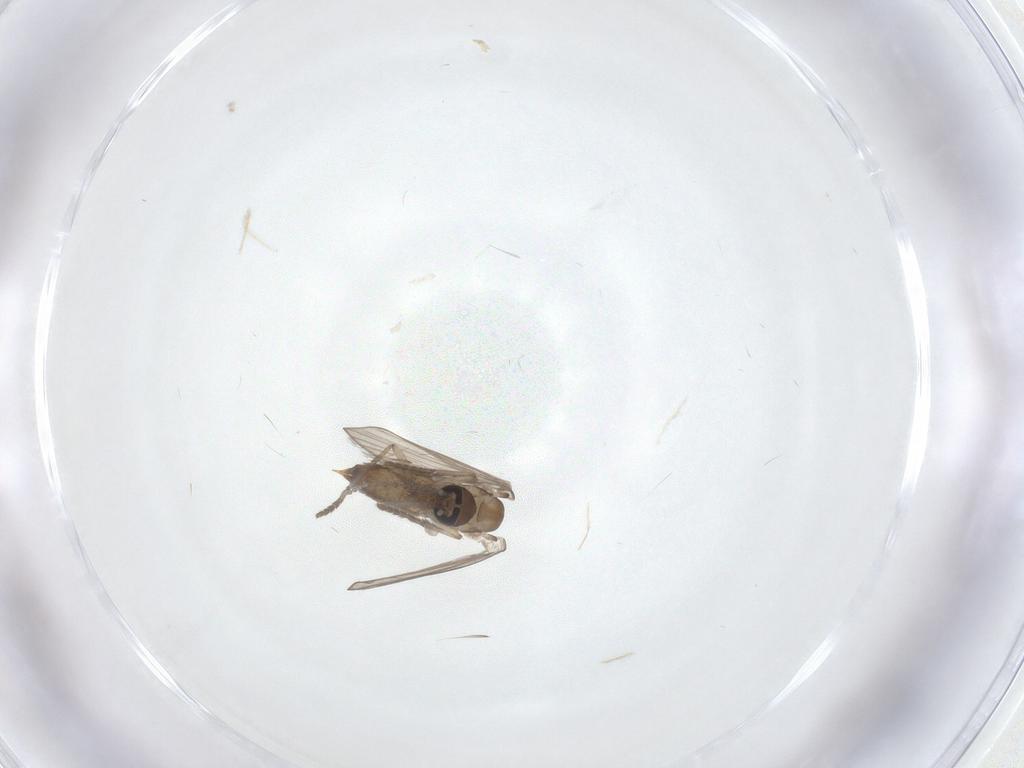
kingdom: Animalia
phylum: Arthropoda
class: Insecta
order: Diptera
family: Psychodidae
